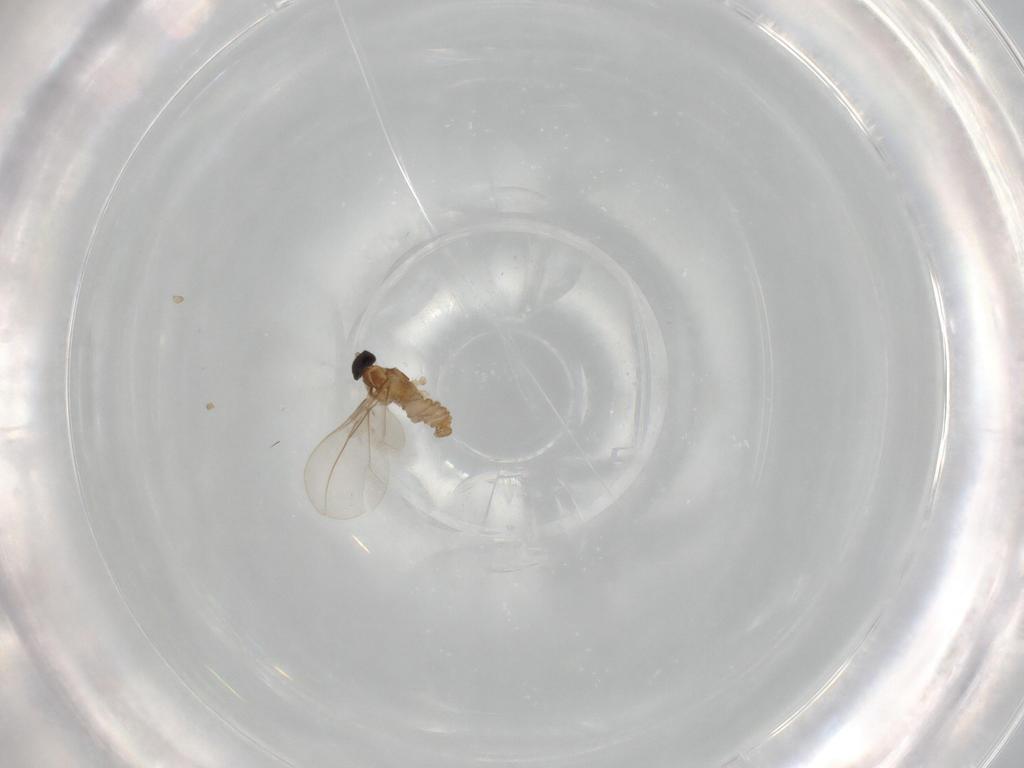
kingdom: Animalia
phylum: Arthropoda
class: Insecta
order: Diptera
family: Cecidomyiidae
